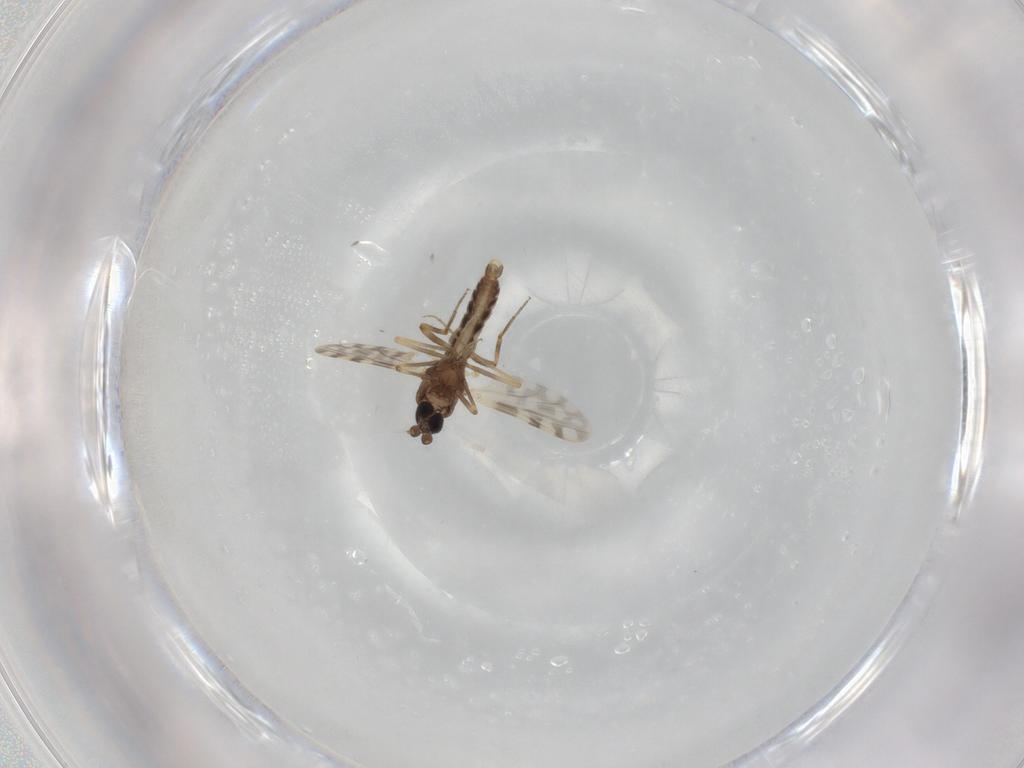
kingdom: Animalia
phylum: Arthropoda
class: Insecta
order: Diptera
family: Ceratopogonidae
